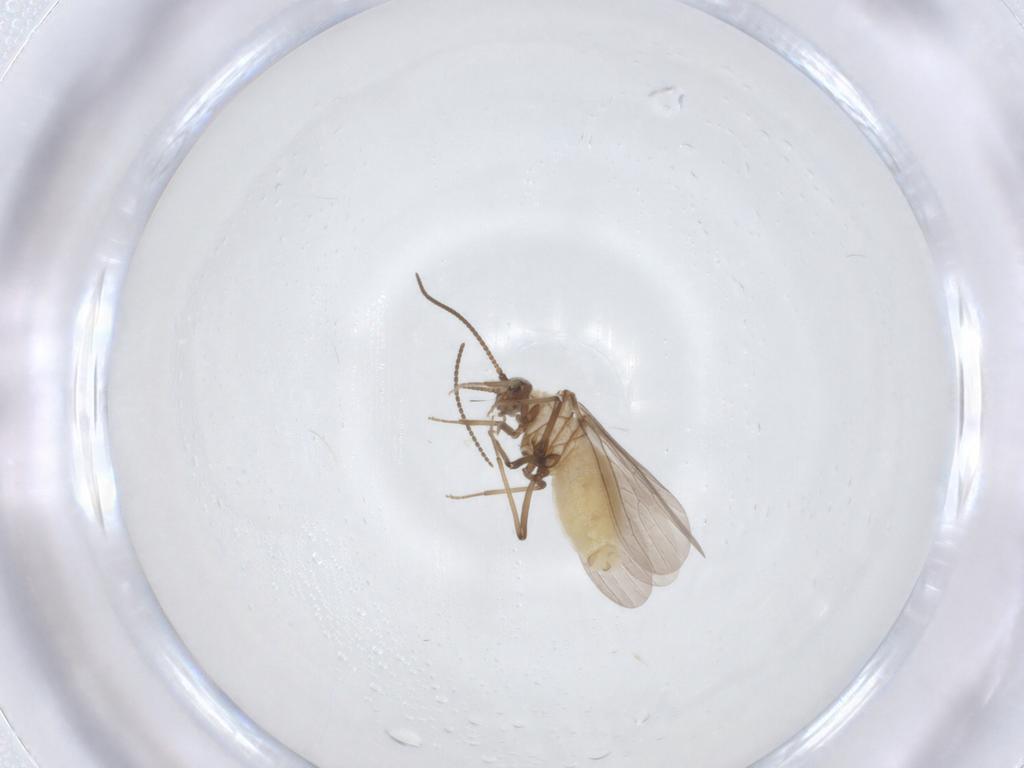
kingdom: Animalia
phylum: Arthropoda
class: Insecta
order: Neuroptera
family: Coniopterygidae
